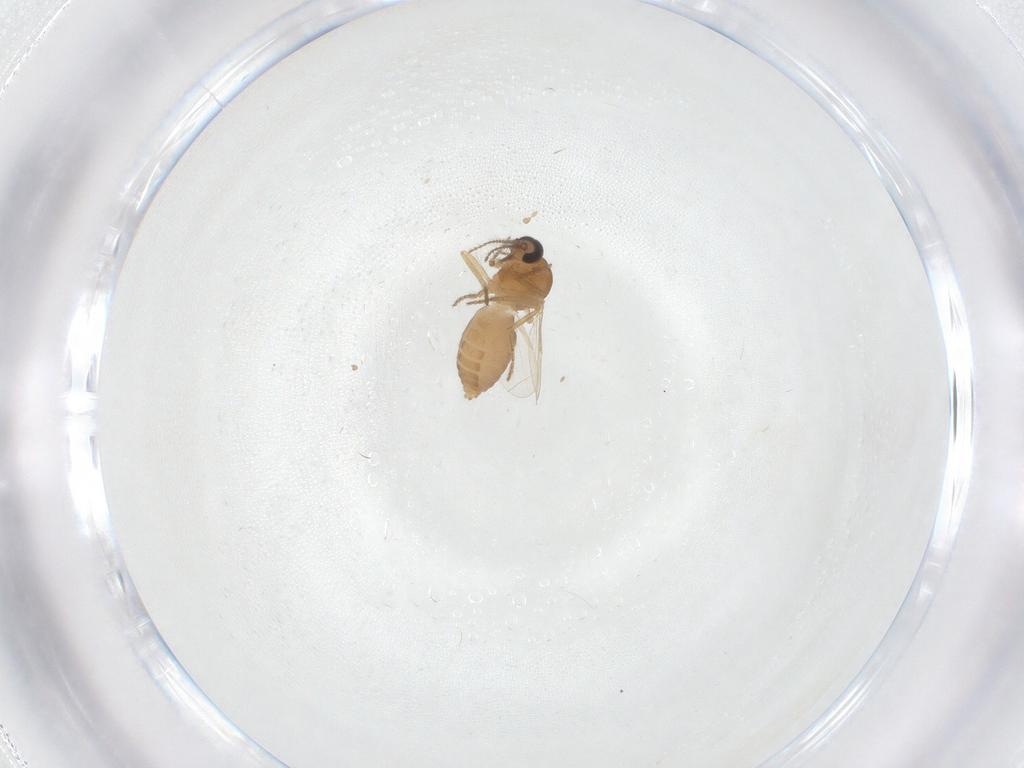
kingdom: Animalia
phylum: Arthropoda
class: Insecta
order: Diptera
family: Ceratopogonidae
